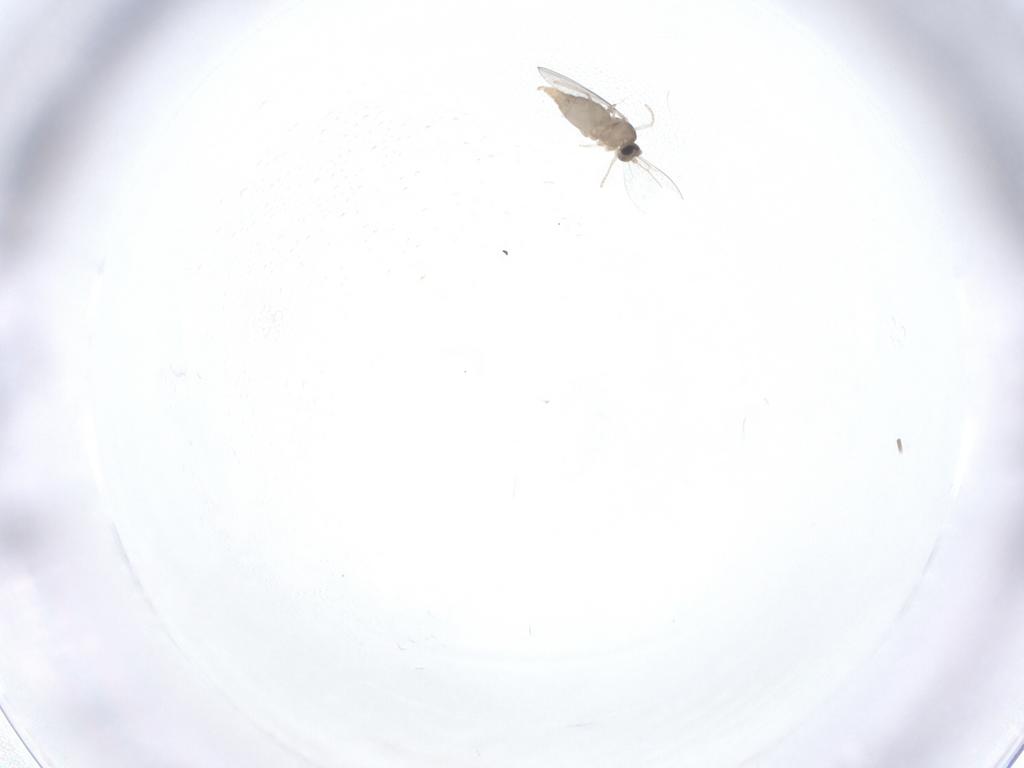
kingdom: Animalia
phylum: Arthropoda
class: Insecta
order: Diptera
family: Cecidomyiidae
